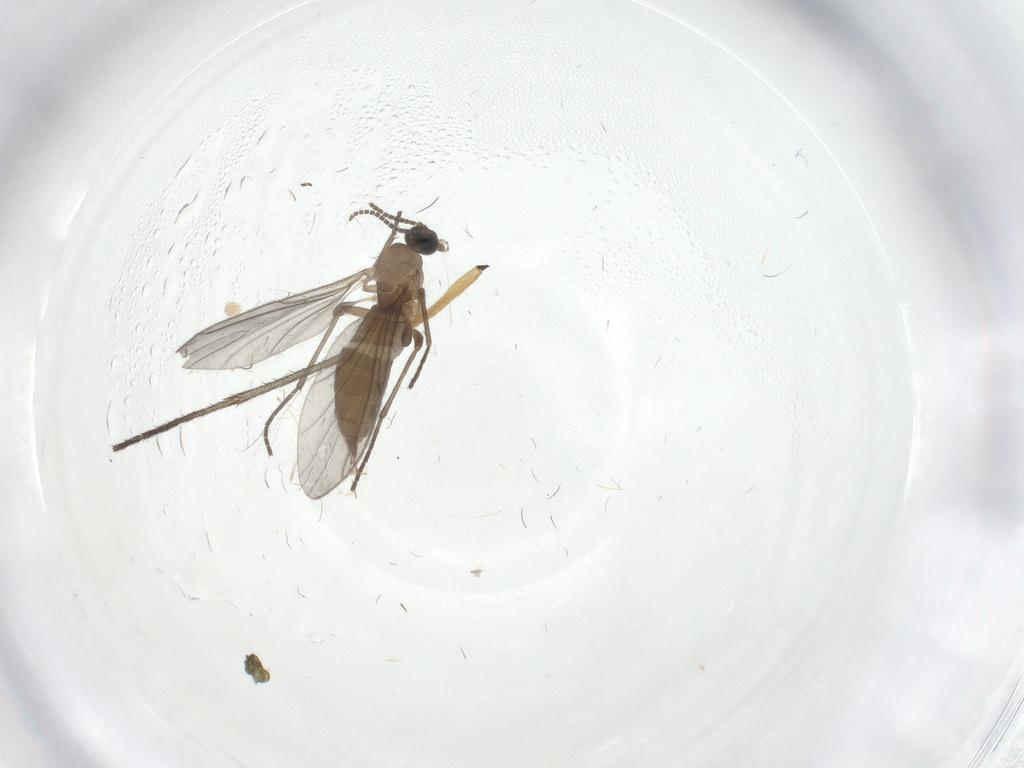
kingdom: Animalia
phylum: Arthropoda
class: Insecta
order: Diptera
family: Sciaridae
